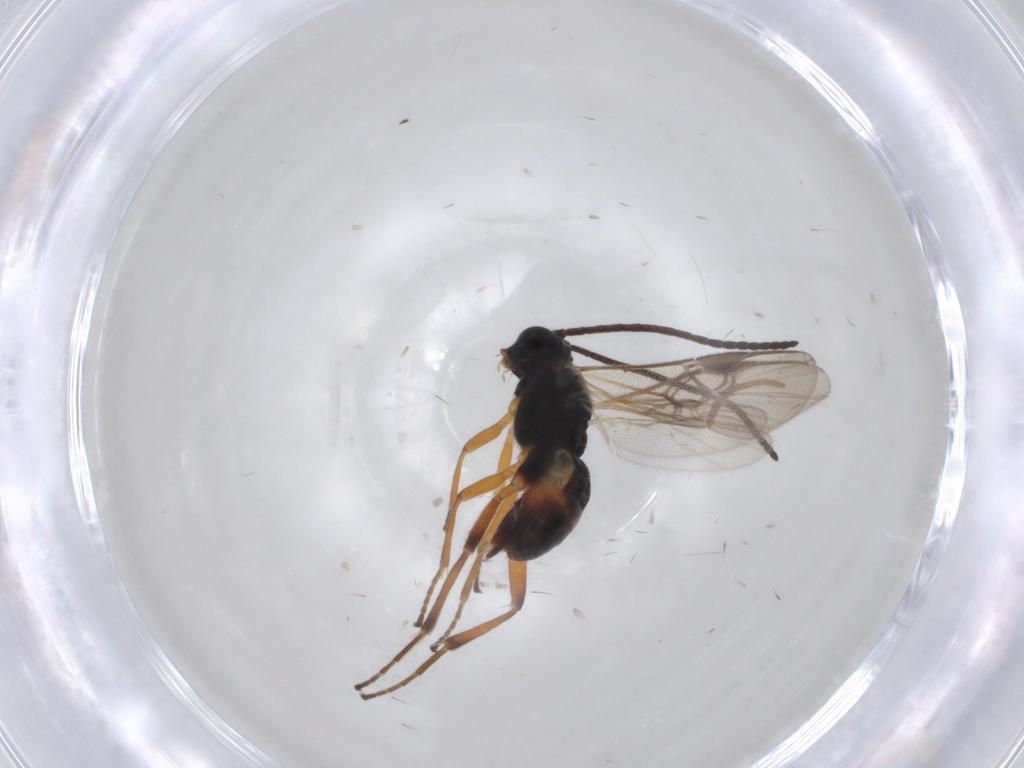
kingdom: Animalia
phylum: Arthropoda
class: Insecta
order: Hymenoptera
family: Braconidae
